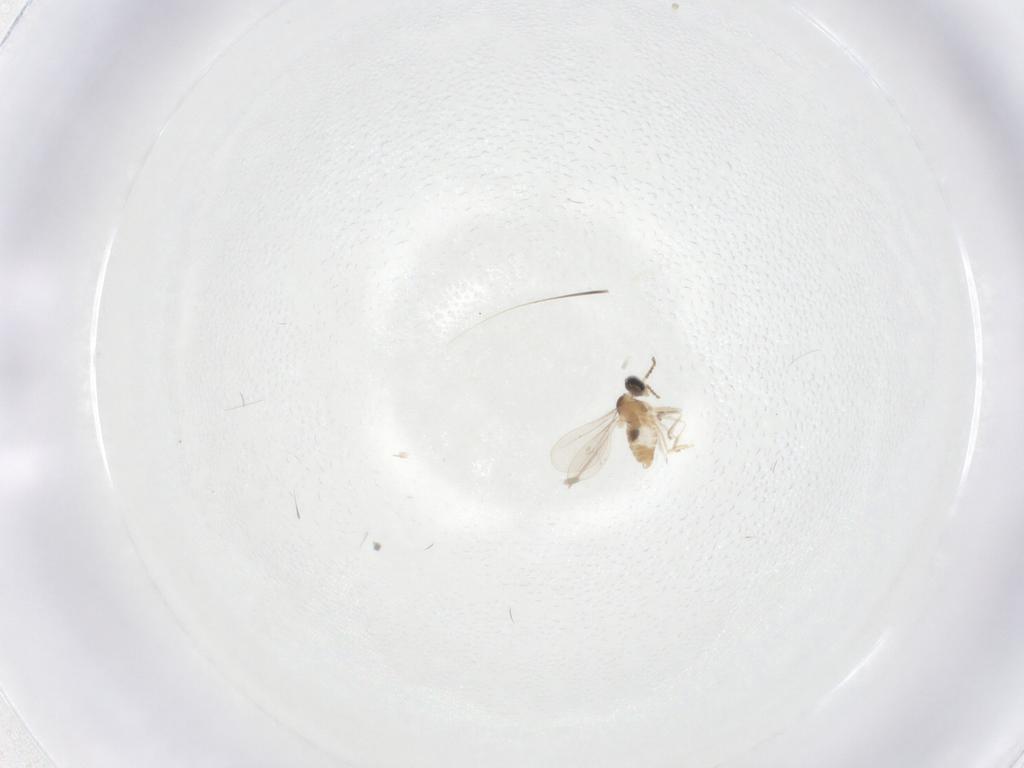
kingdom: Animalia
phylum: Arthropoda
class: Insecta
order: Diptera
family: Cecidomyiidae
